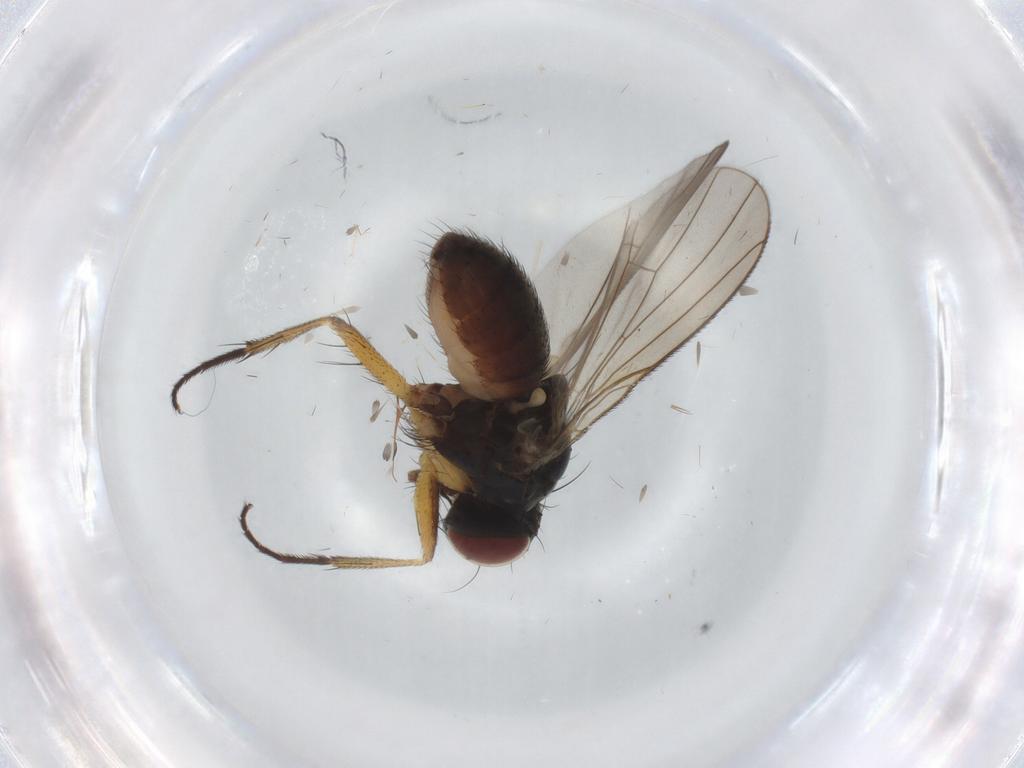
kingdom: Animalia
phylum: Arthropoda
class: Insecta
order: Diptera
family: Muscidae
